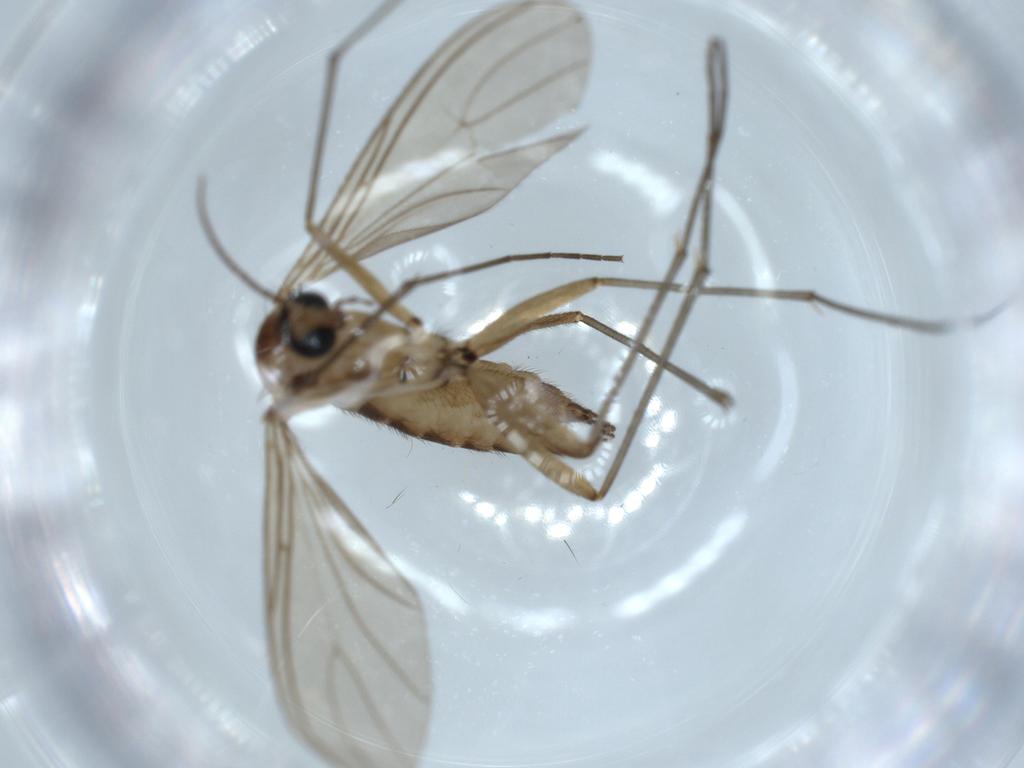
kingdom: Animalia
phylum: Arthropoda
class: Insecta
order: Diptera
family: Sciaridae
